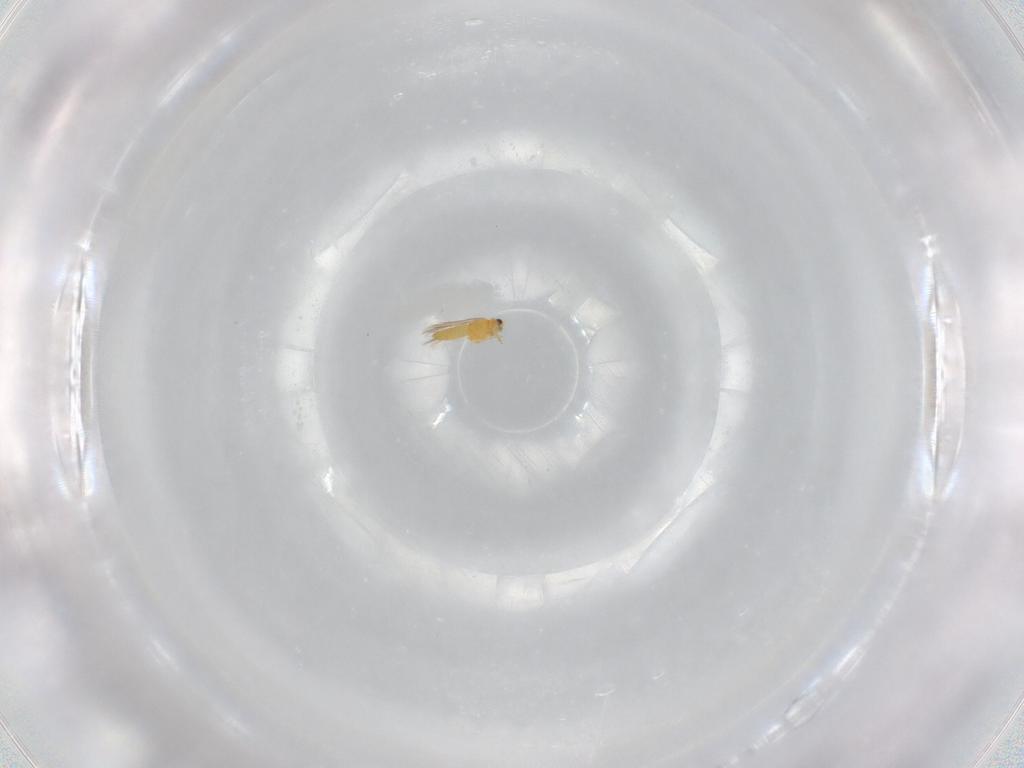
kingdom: Animalia
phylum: Arthropoda
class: Insecta
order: Thysanoptera
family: Thripidae
